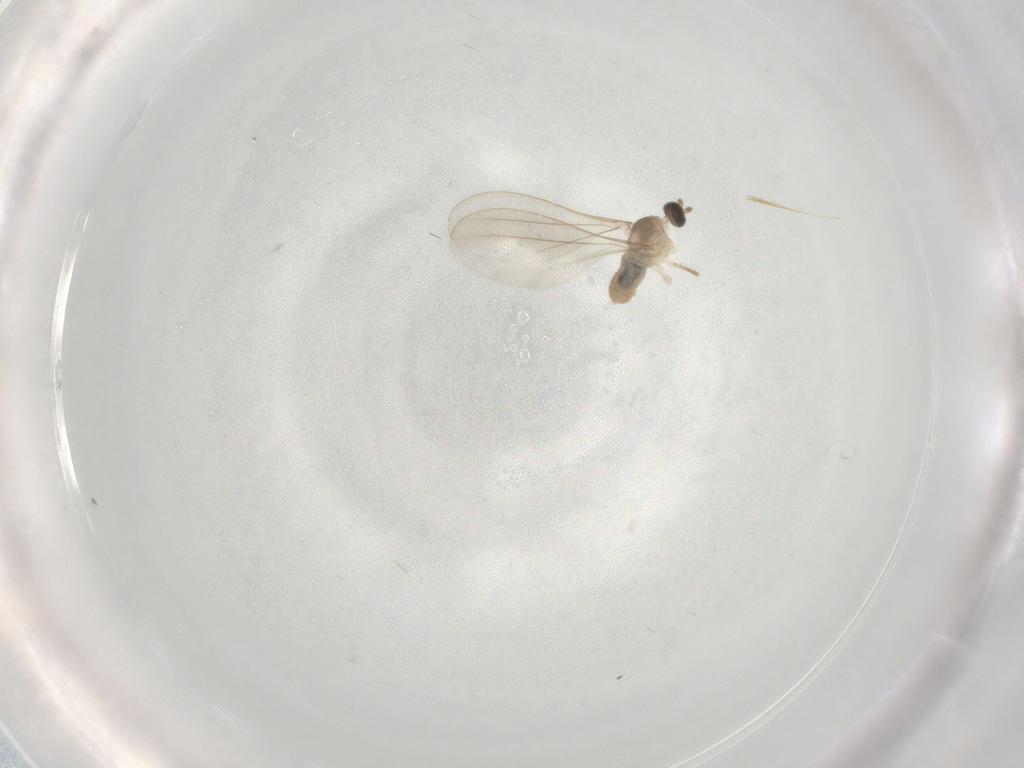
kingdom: Animalia
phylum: Arthropoda
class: Insecta
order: Diptera
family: Cecidomyiidae
